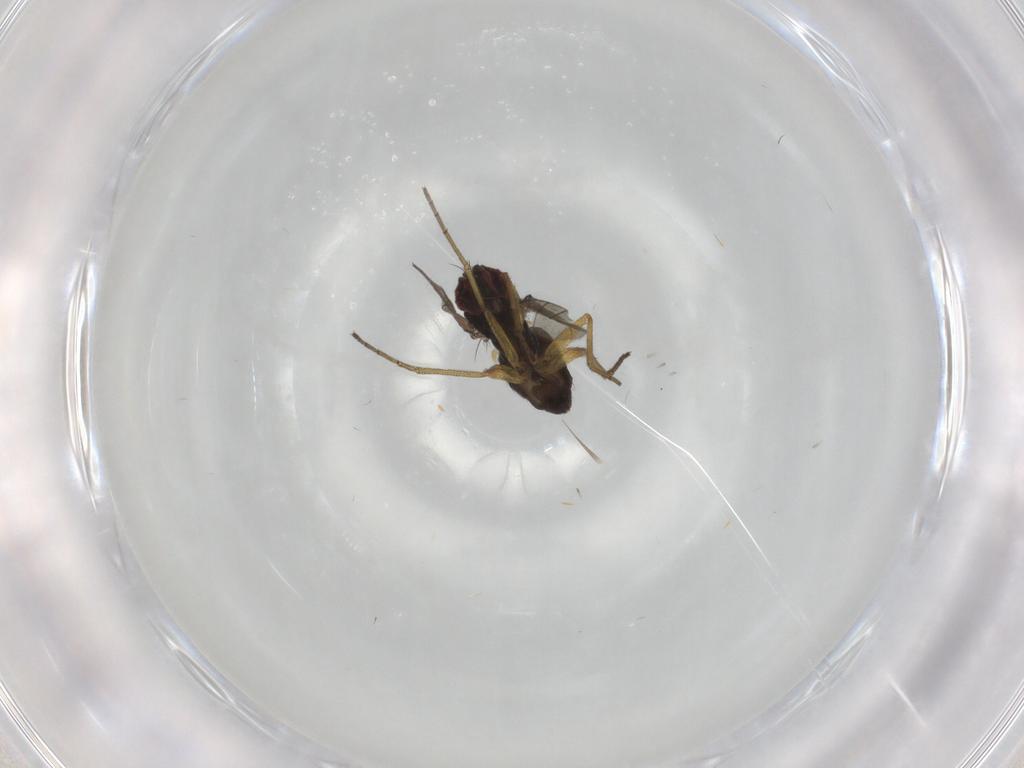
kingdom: Animalia
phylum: Arthropoda
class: Insecta
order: Diptera
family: Dolichopodidae
